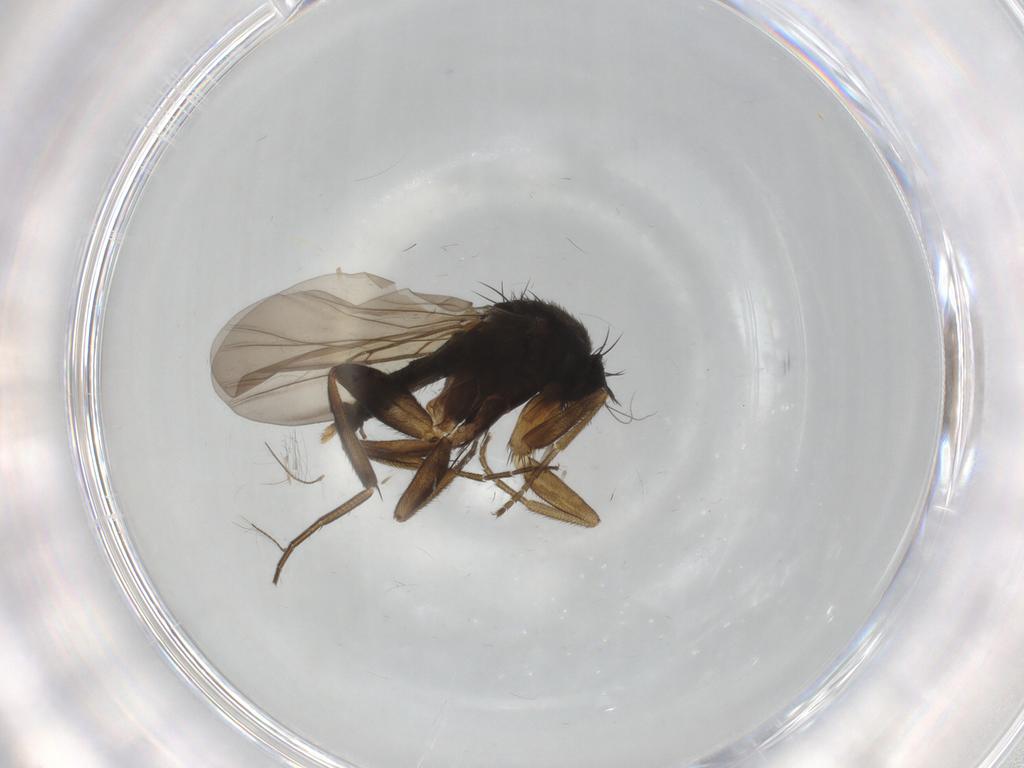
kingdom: Animalia
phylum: Arthropoda
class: Insecta
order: Diptera
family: Phoridae
